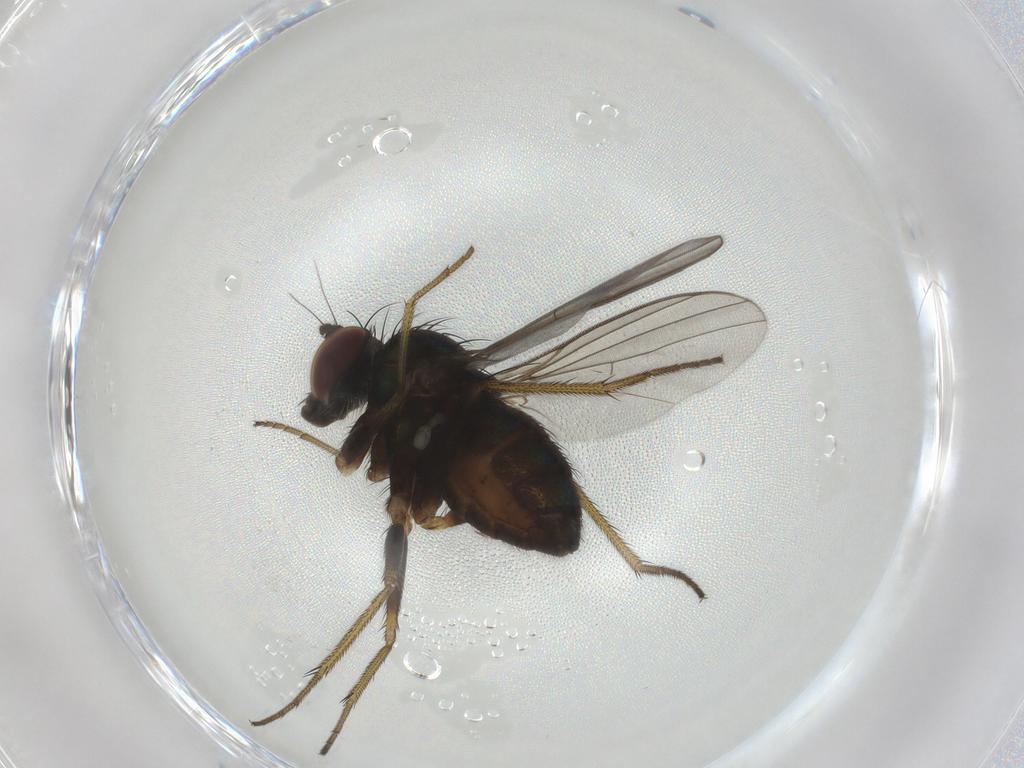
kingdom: Animalia
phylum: Arthropoda
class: Insecta
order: Diptera
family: Dolichopodidae
